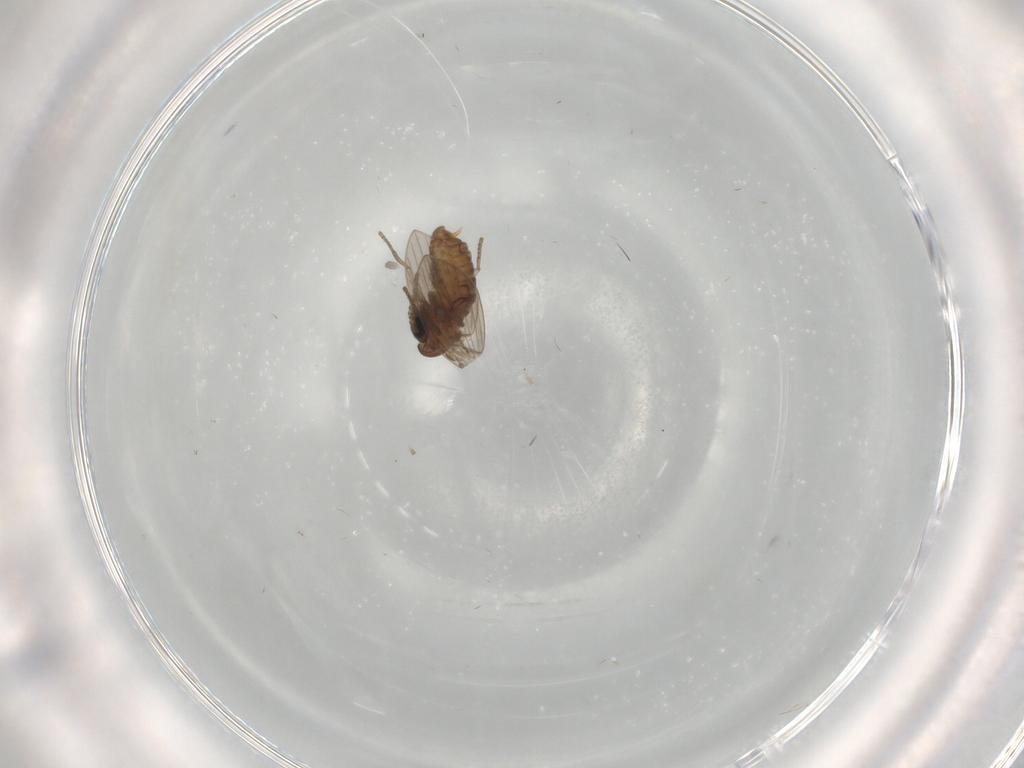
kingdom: Animalia
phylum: Arthropoda
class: Insecta
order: Diptera
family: Psychodidae
